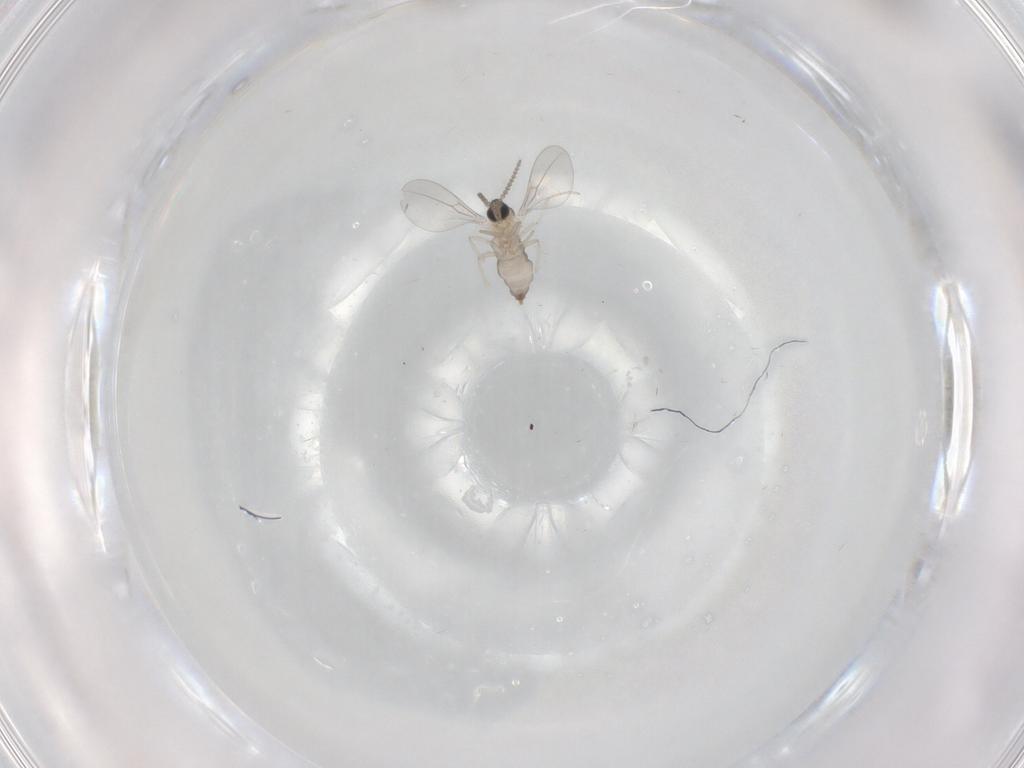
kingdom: Animalia
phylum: Arthropoda
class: Insecta
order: Diptera
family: Cecidomyiidae
